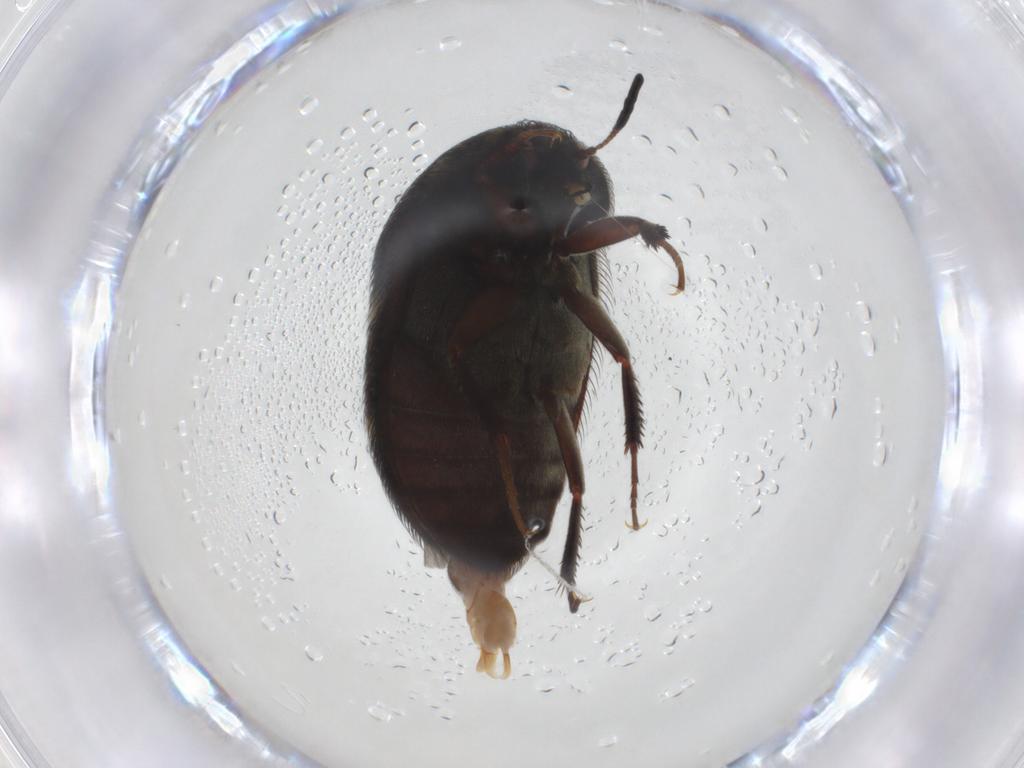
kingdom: Animalia
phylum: Arthropoda
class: Insecta
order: Coleoptera
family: Dermestidae
